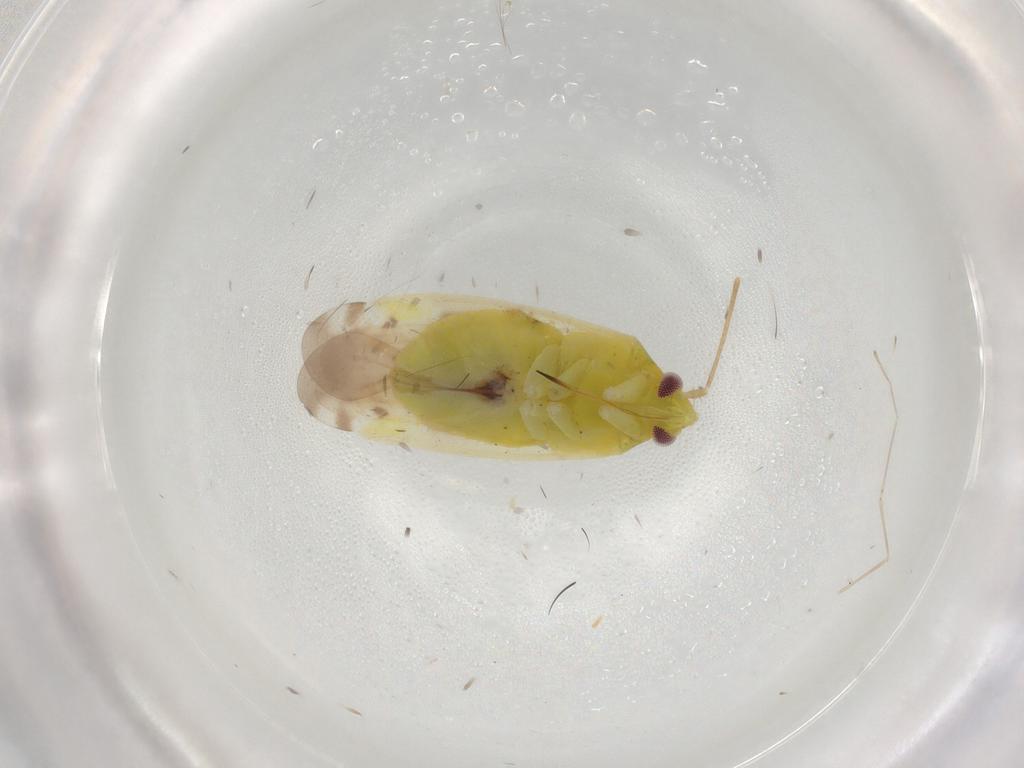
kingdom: Animalia
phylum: Arthropoda
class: Insecta
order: Hemiptera
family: Miridae
